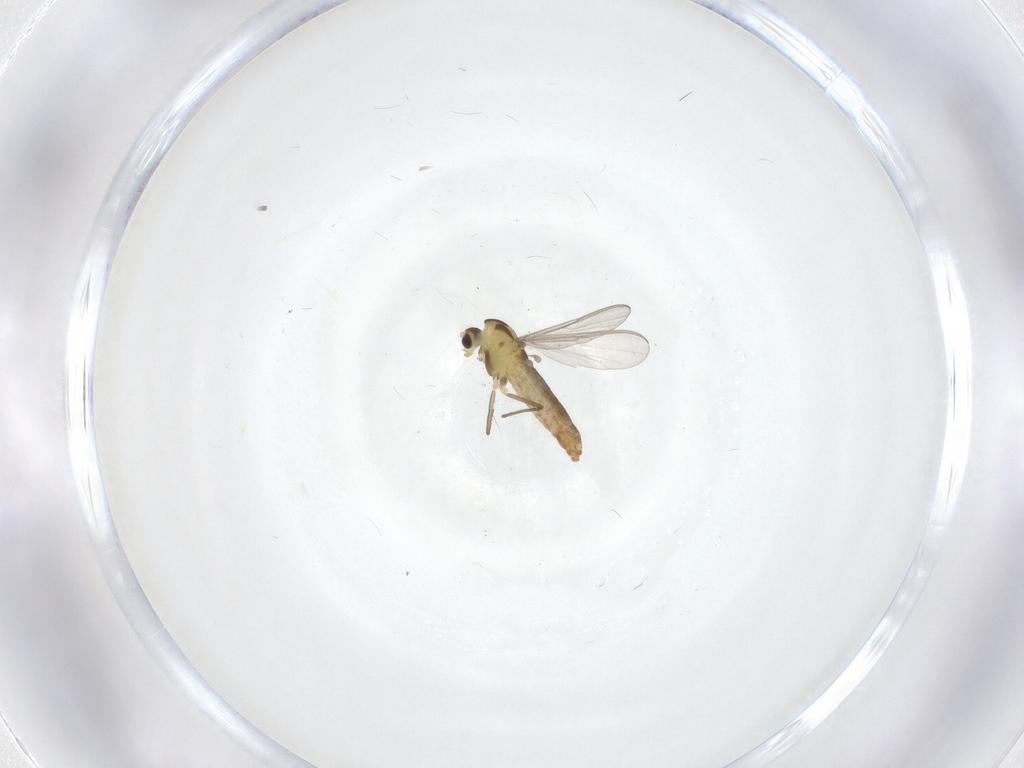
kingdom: Animalia
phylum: Arthropoda
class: Insecta
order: Diptera
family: Chironomidae
